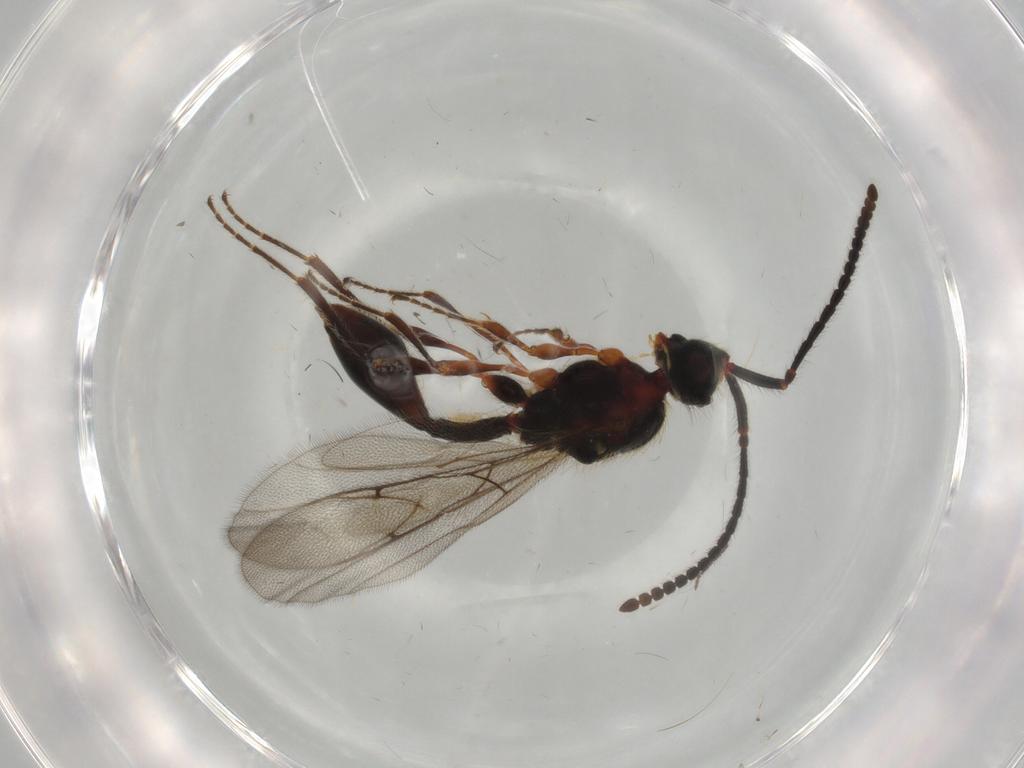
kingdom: Animalia
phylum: Arthropoda
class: Insecta
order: Hymenoptera
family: Diapriidae
